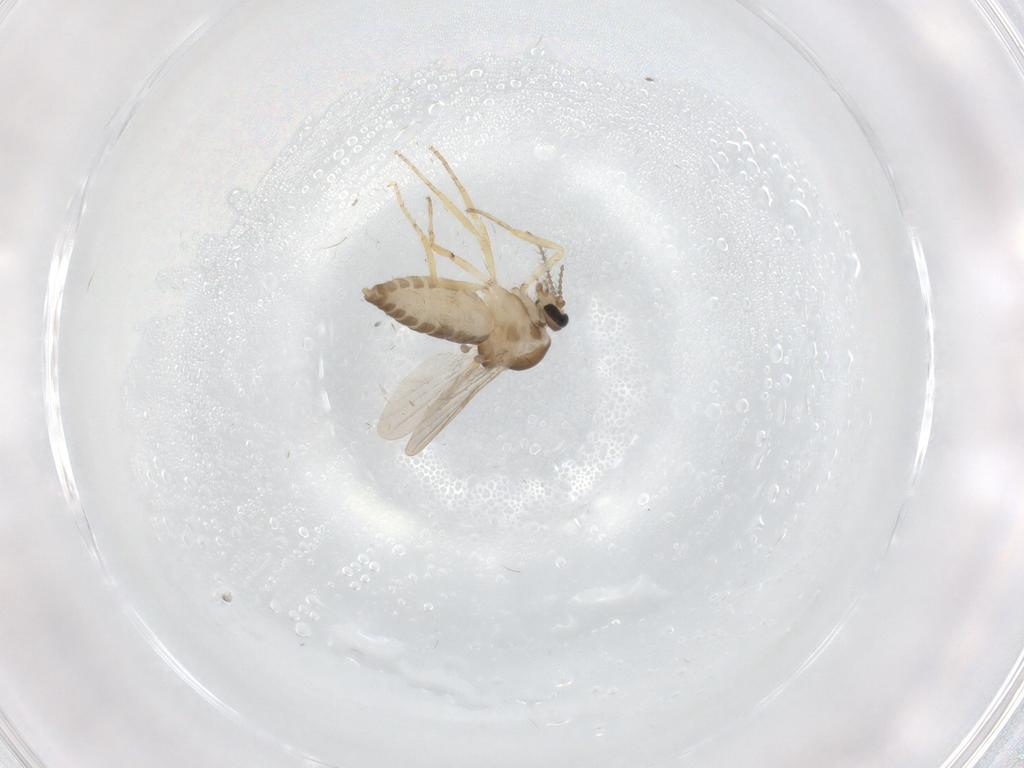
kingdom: Animalia
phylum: Arthropoda
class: Insecta
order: Diptera
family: Ceratopogonidae
